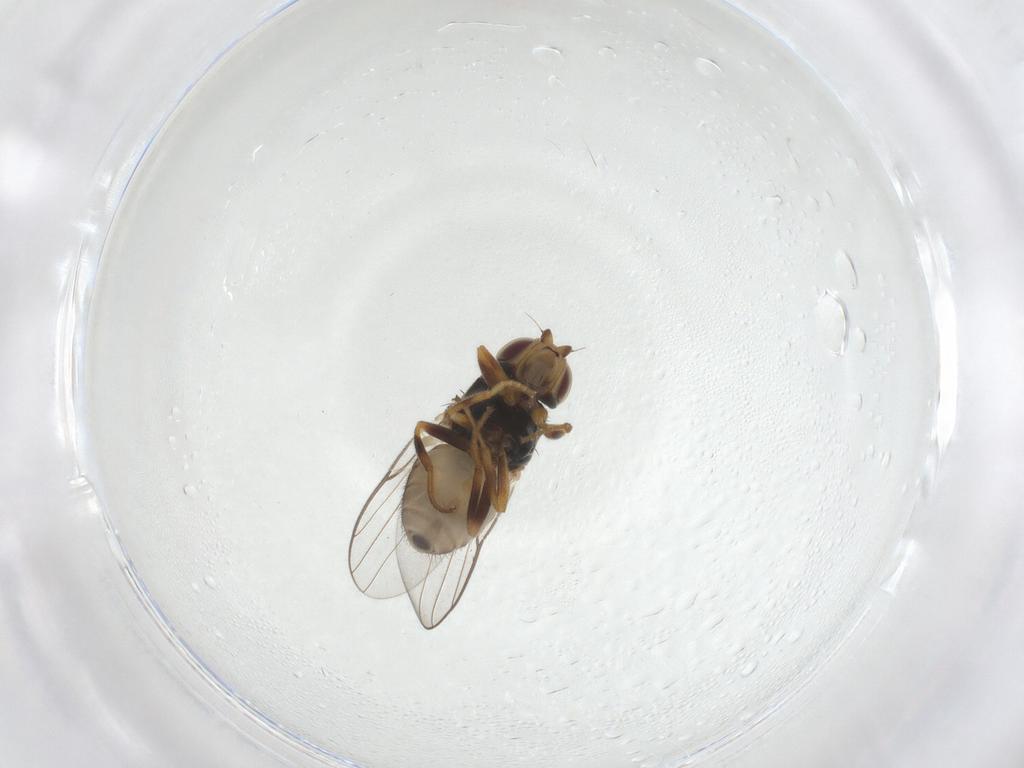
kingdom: Animalia
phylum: Arthropoda
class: Insecta
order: Diptera
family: Chloropidae
